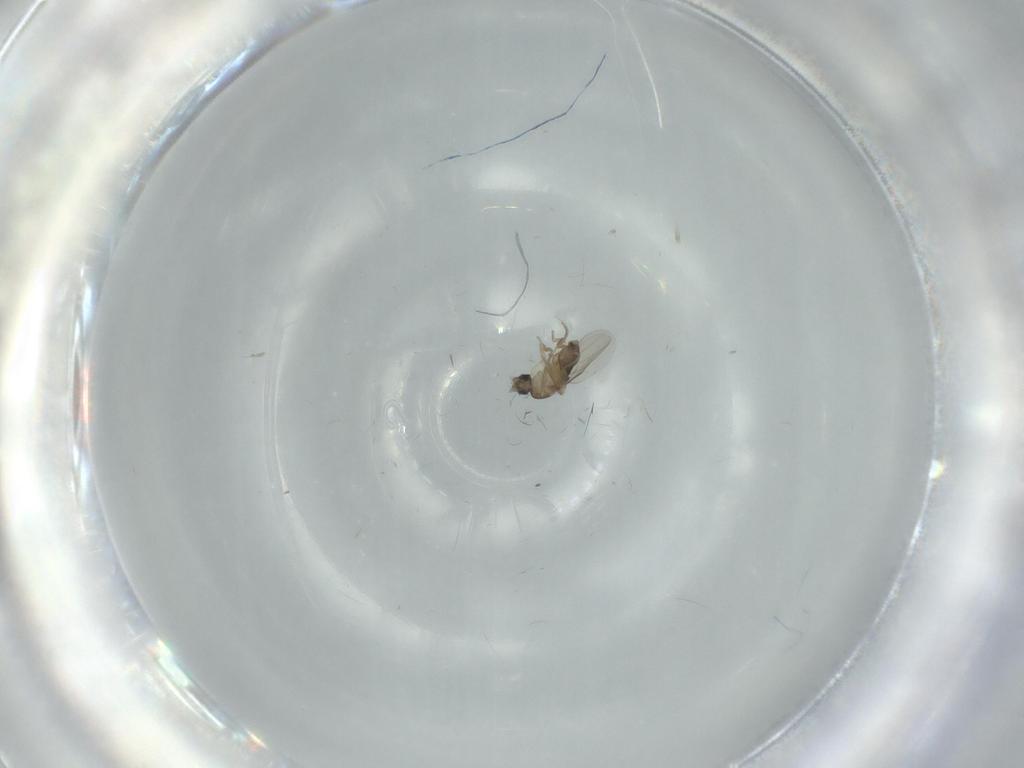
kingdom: Animalia
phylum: Arthropoda
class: Insecta
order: Diptera
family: Phoridae
